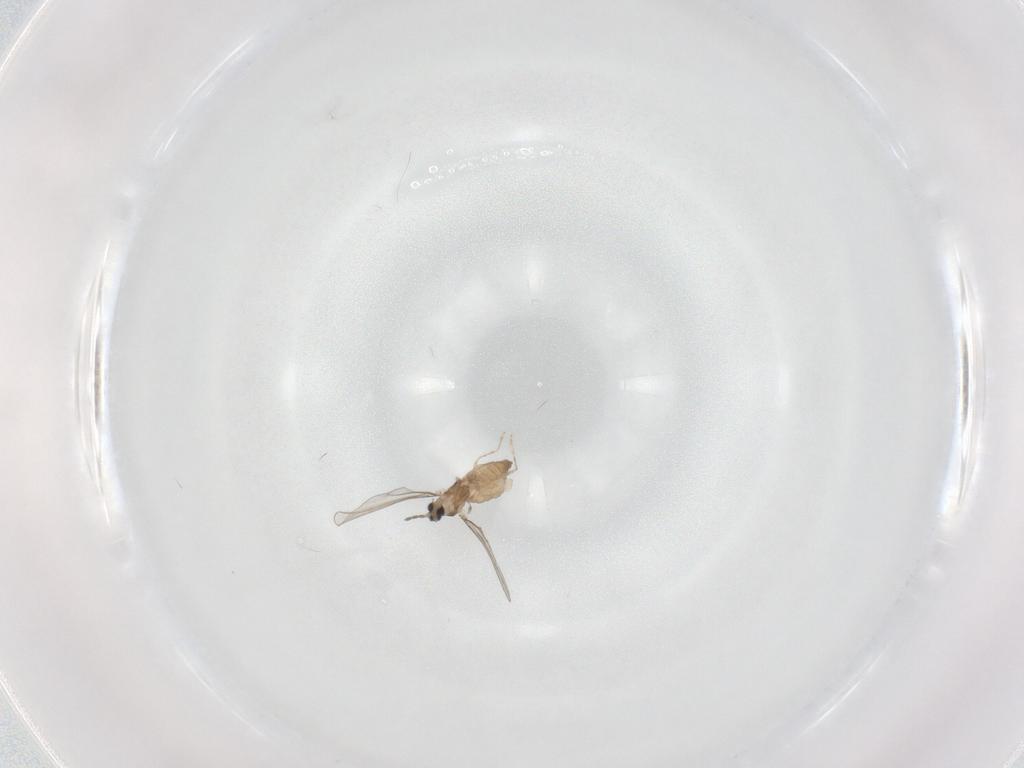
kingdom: Animalia
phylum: Arthropoda
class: Insecta
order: Diptera
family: Cecidomyiidae
